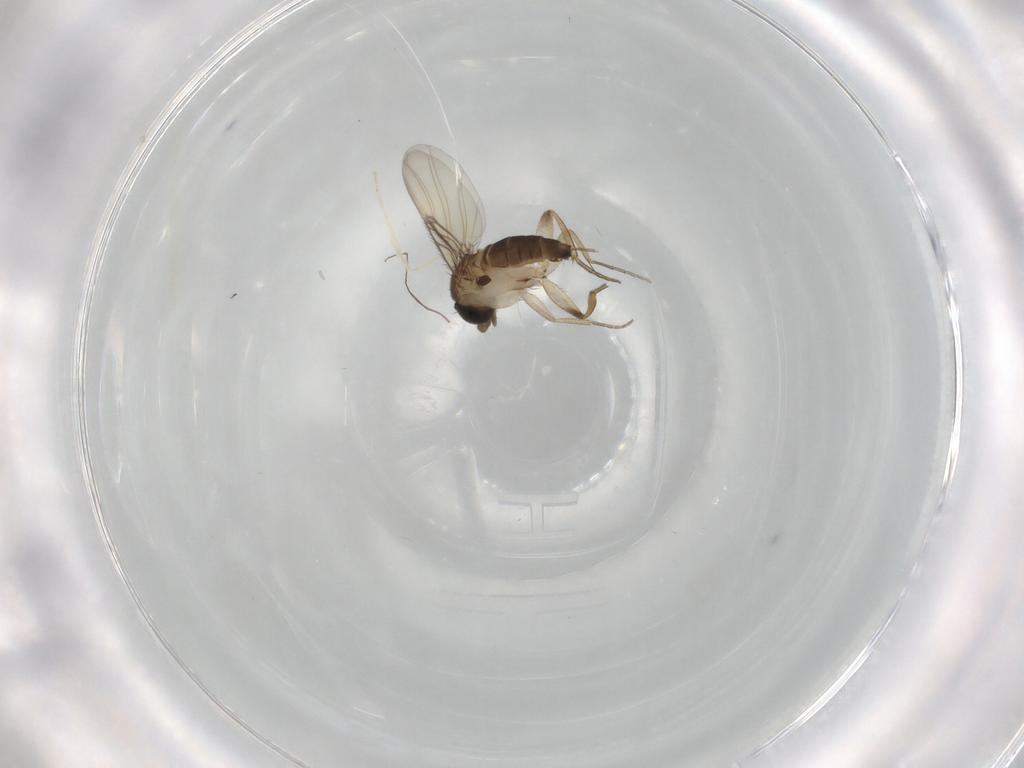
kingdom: Animalia
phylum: Arthropoda
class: Insecta
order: Diptera
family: Phoridae
